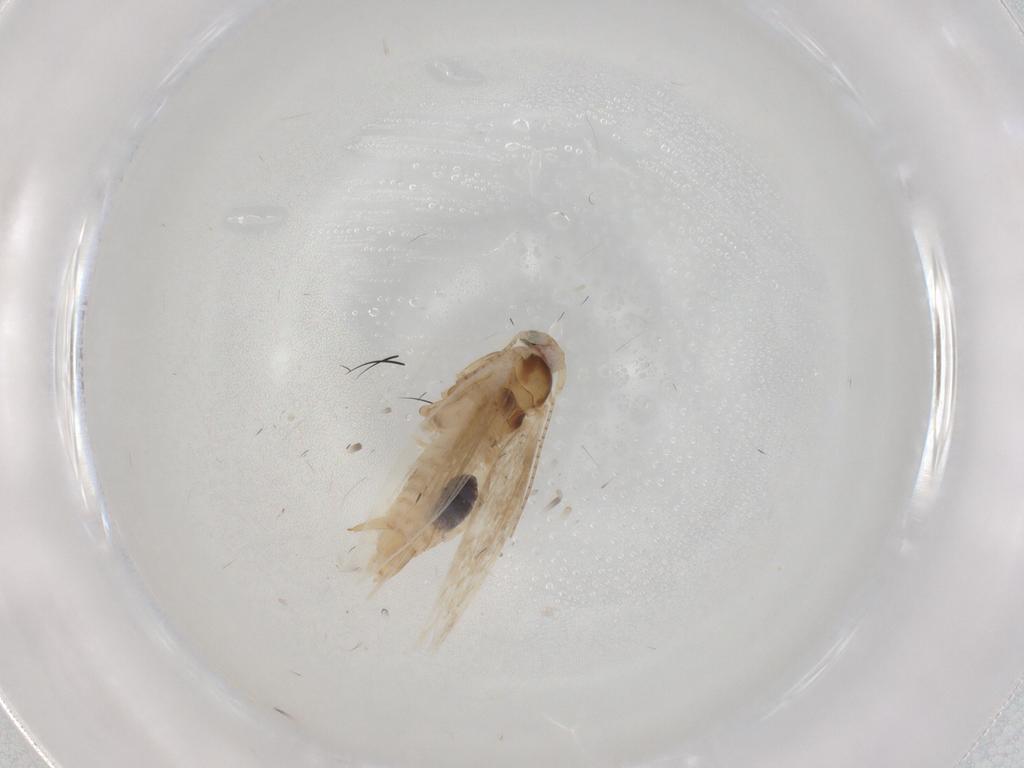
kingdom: Animalia
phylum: Arthropoda
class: Insecta
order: Lepidoptera
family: Bucculatricidae
